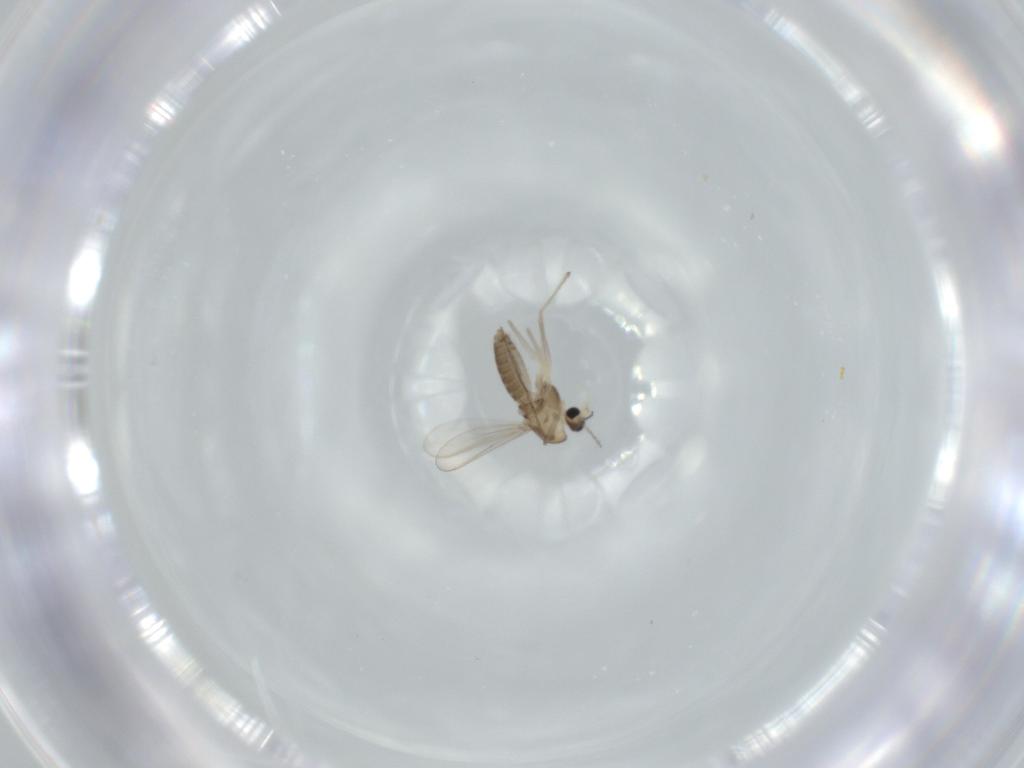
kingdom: Animalia
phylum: Arthropoda
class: Insecta
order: Diptera
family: Chironomidae
